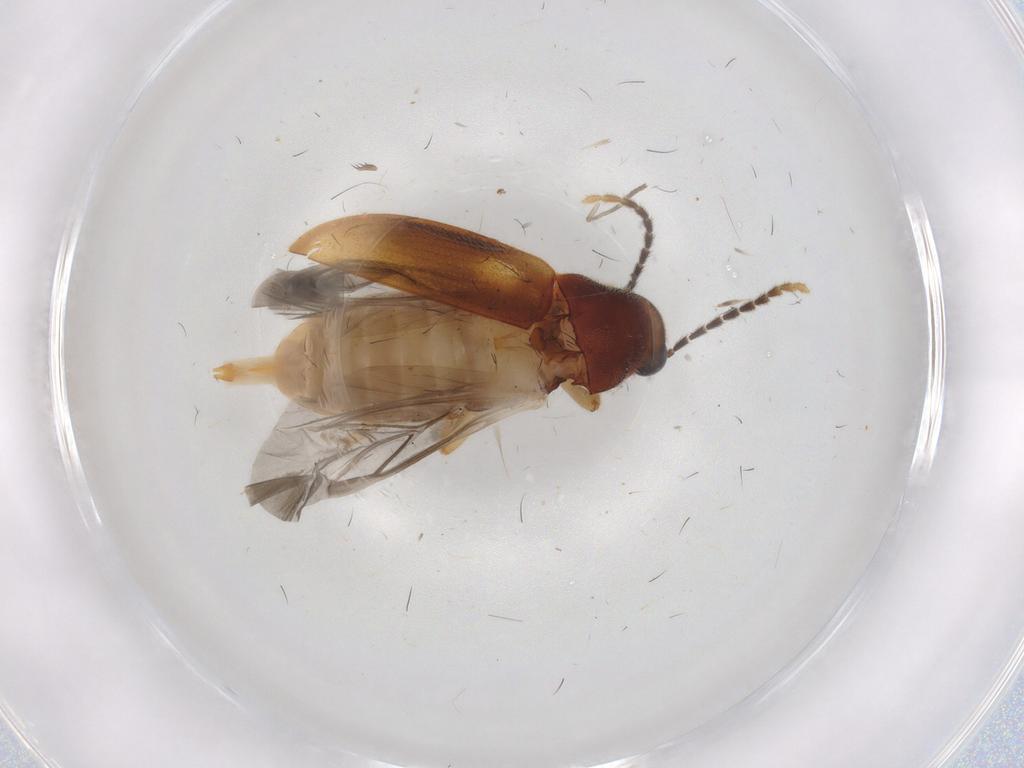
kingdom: Animalia
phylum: Arthropoda
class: Insecta
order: Coleoptera
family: Ptilodactylidae
